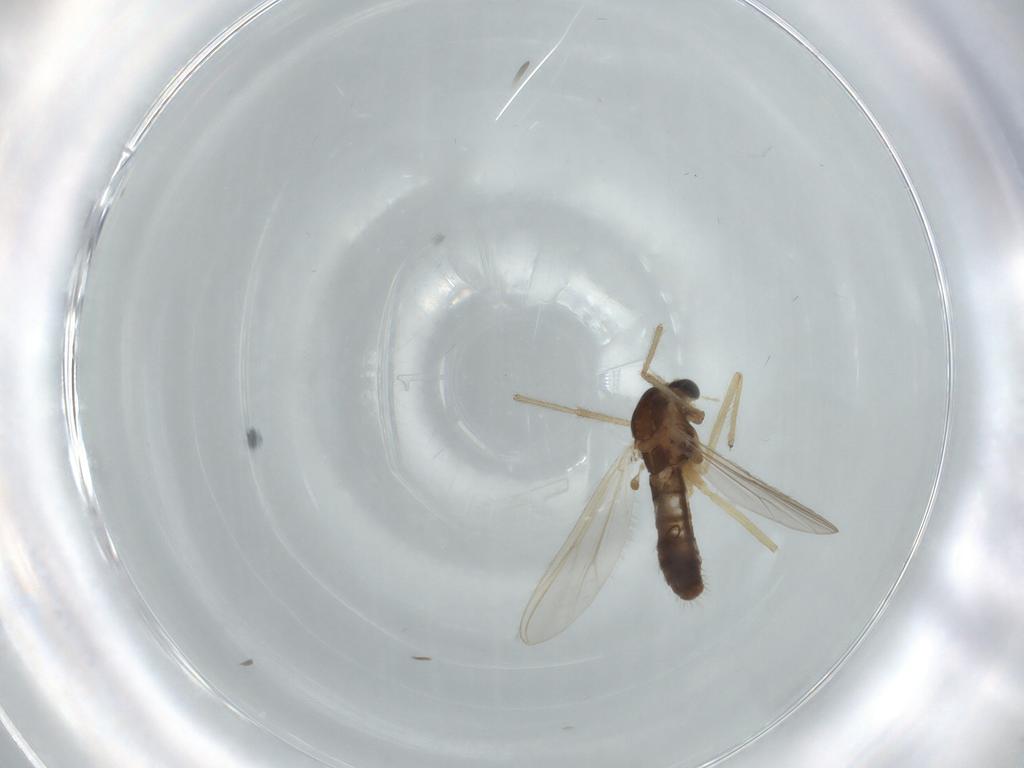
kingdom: Animalia
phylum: Arthropoda
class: Insecta
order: Diptera
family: Chironomidae
